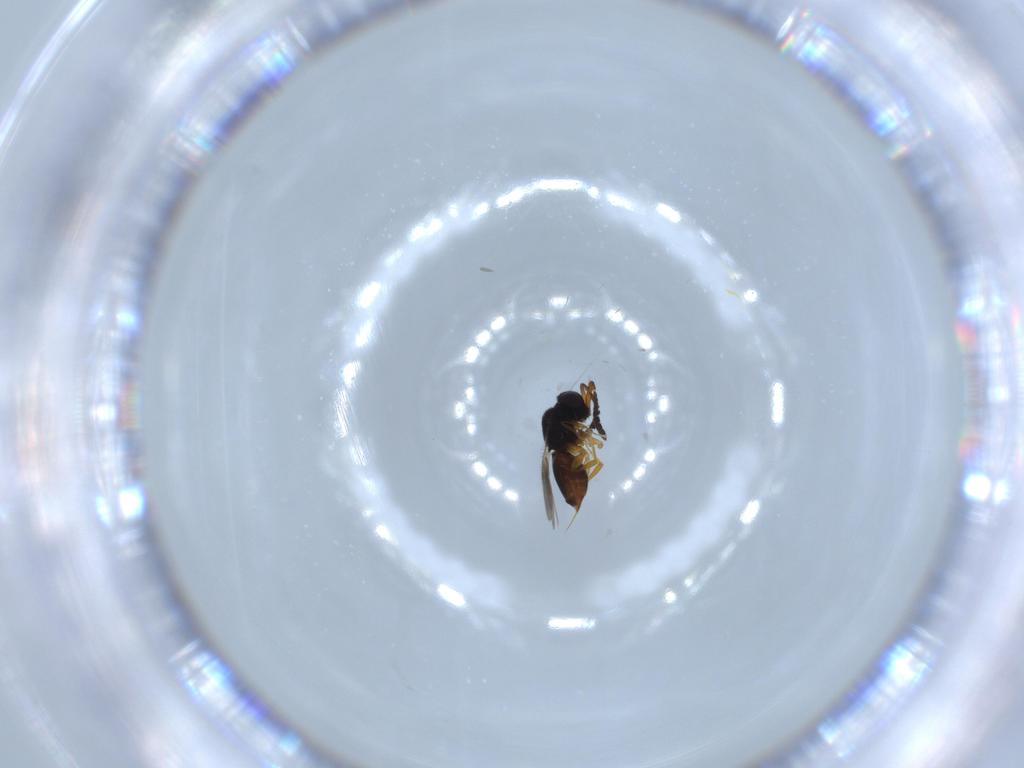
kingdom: Animalia
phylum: Arthropoda
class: Insecta
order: Hymenoptera
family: Ceraphronidae
